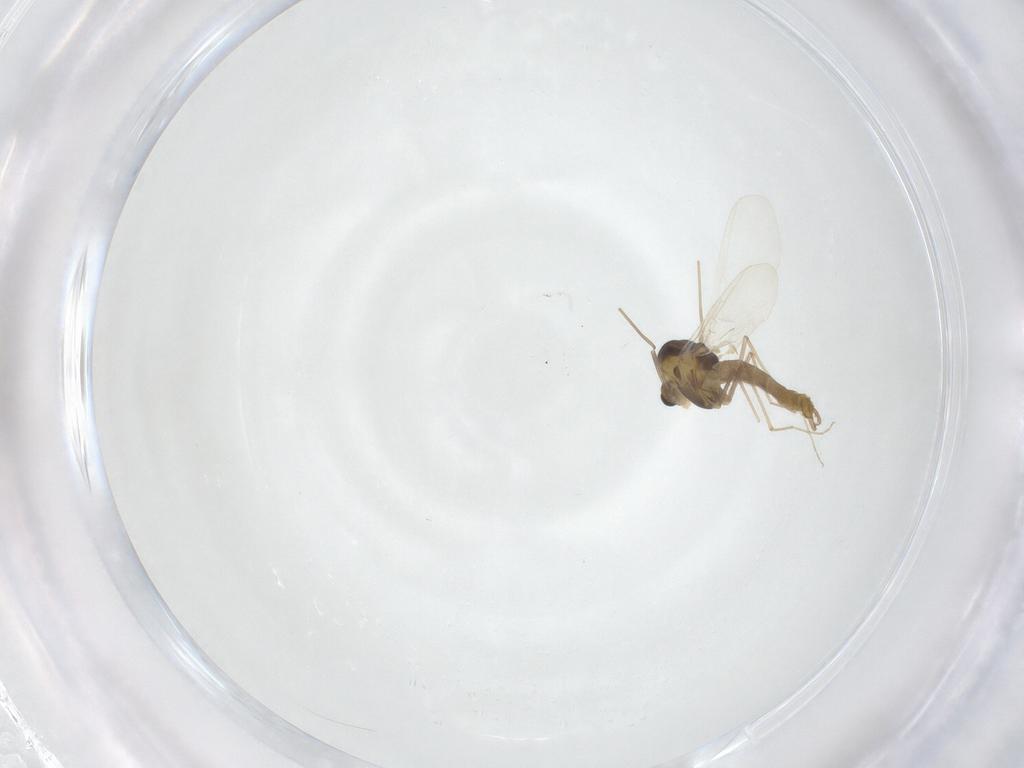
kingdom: Animalia
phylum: Arthropoda
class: Insecta
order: Diptera
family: Chironomidae
